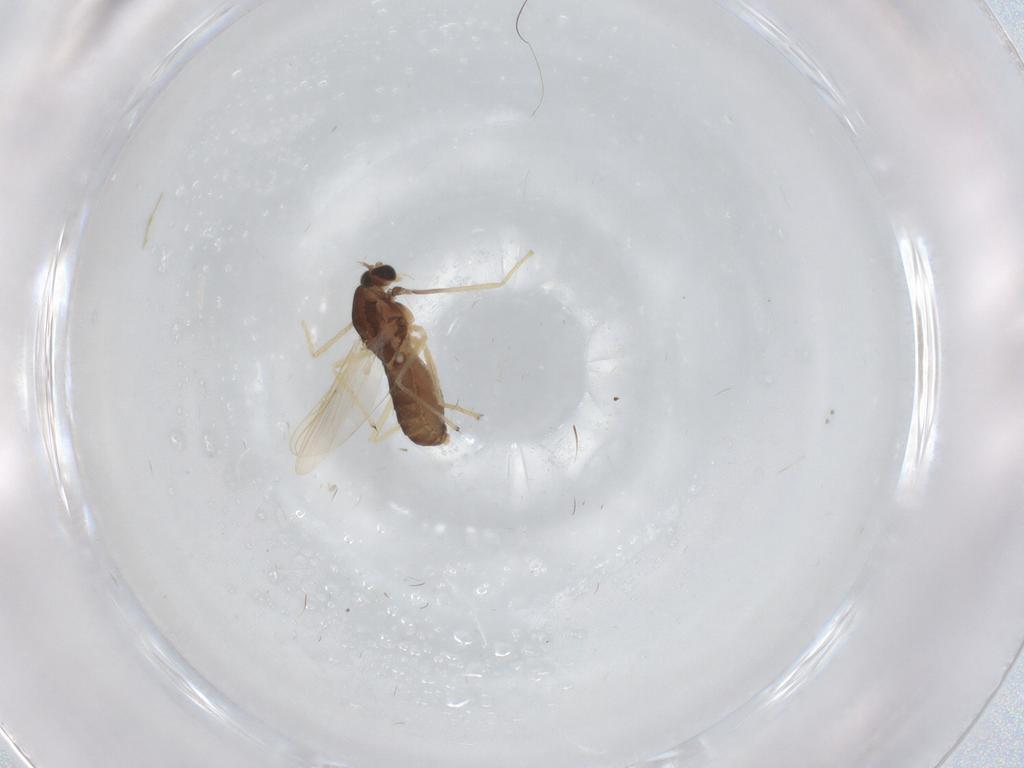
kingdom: Animalia
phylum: Arthropoda
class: Insecta
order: Diptera
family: Chironomidae
